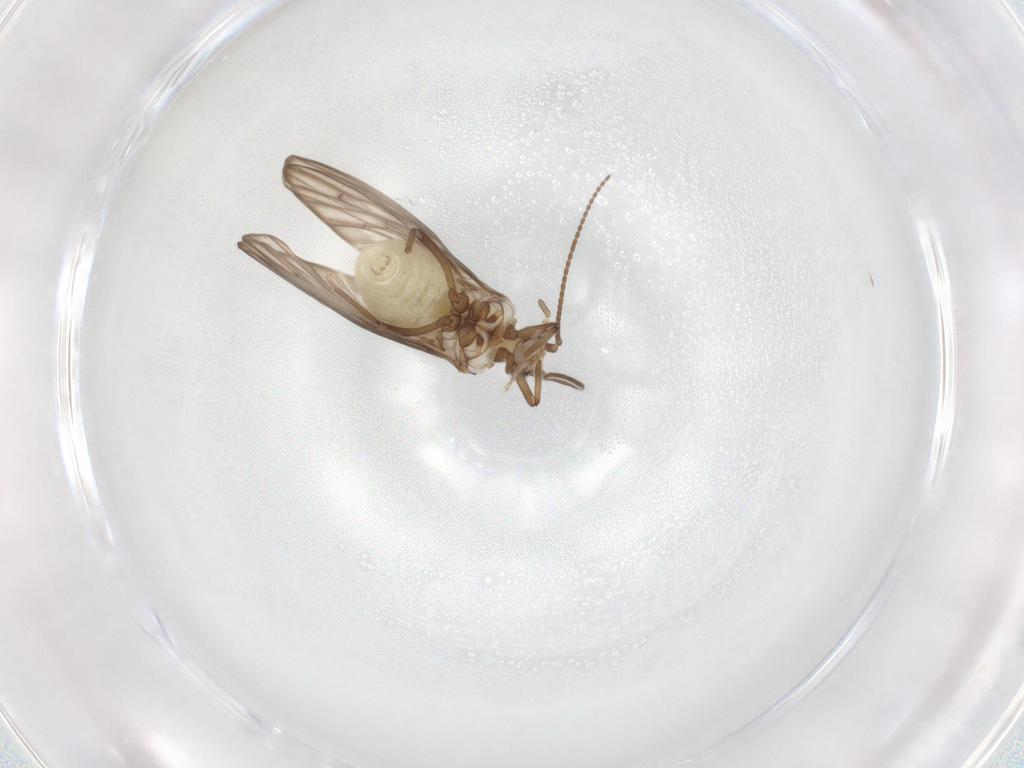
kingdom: Animalia
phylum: Arthropoda
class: Insecta
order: Neuroptera
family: Coniopterygidae
